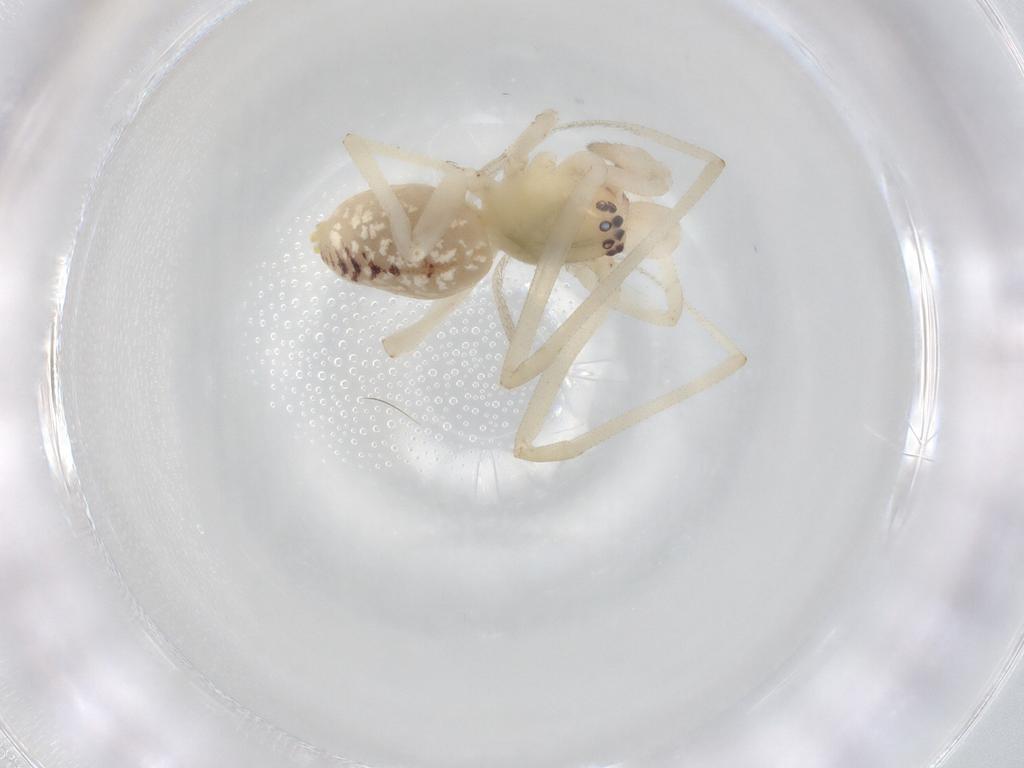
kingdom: Animalia
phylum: Arthropoda
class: Arachnida
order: Araneae
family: Cheiracanthiidae
